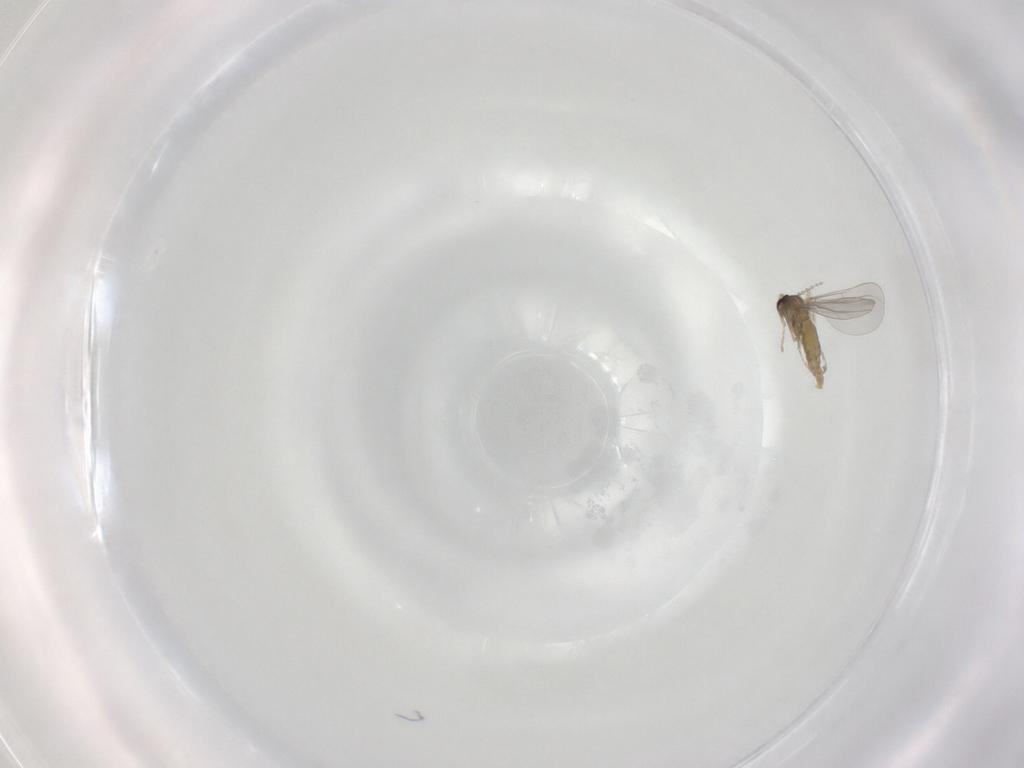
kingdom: Animalia
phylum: Arthropoda
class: Insecta
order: Diptera
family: Cecidomyiidae
